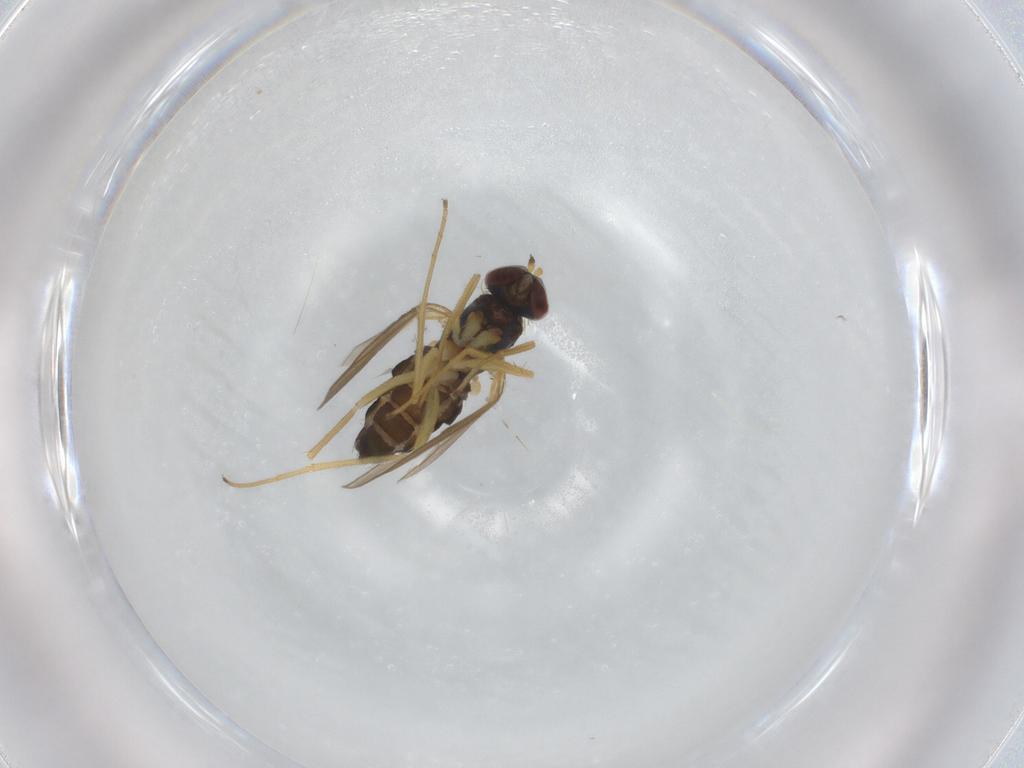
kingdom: Animalia
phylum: Arthropoda
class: Insecta
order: Diptera
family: Dolichopodidae
